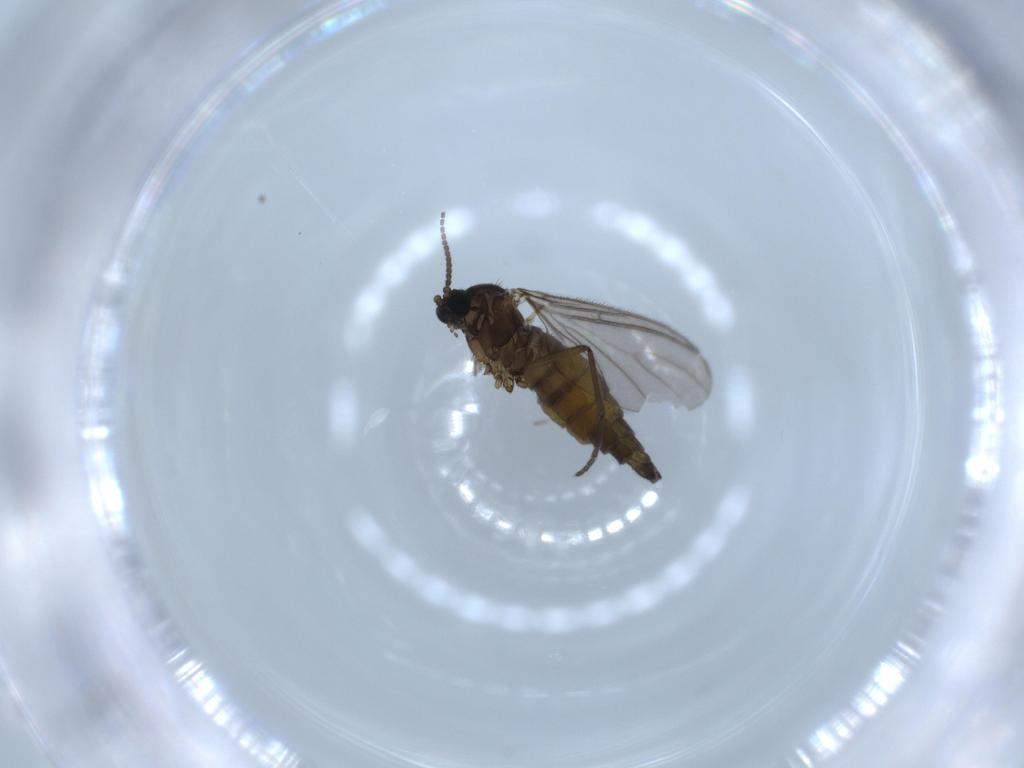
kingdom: Animalia
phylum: Arthropoda
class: Insecta
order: Diptera
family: Sciaridae
